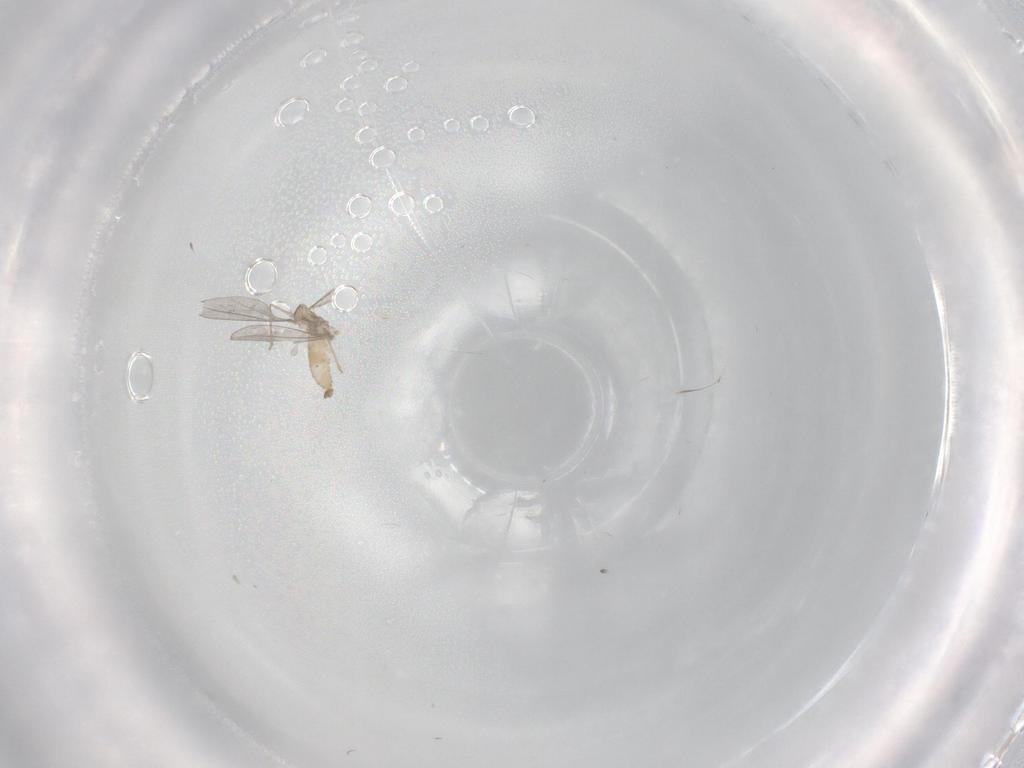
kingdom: Animalia
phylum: Arthropoda
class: Insecta
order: Diptera
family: Sphaeroceridae
